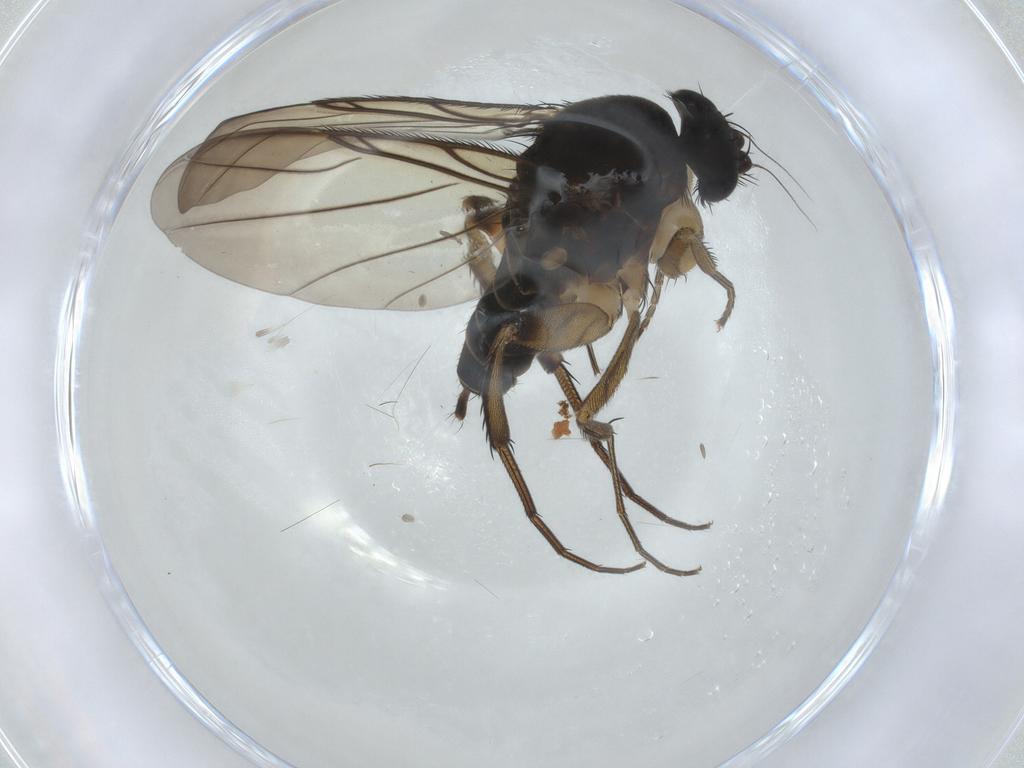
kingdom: Animalia
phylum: Arthropoda
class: Insecta
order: Diptera
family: Phoridae
